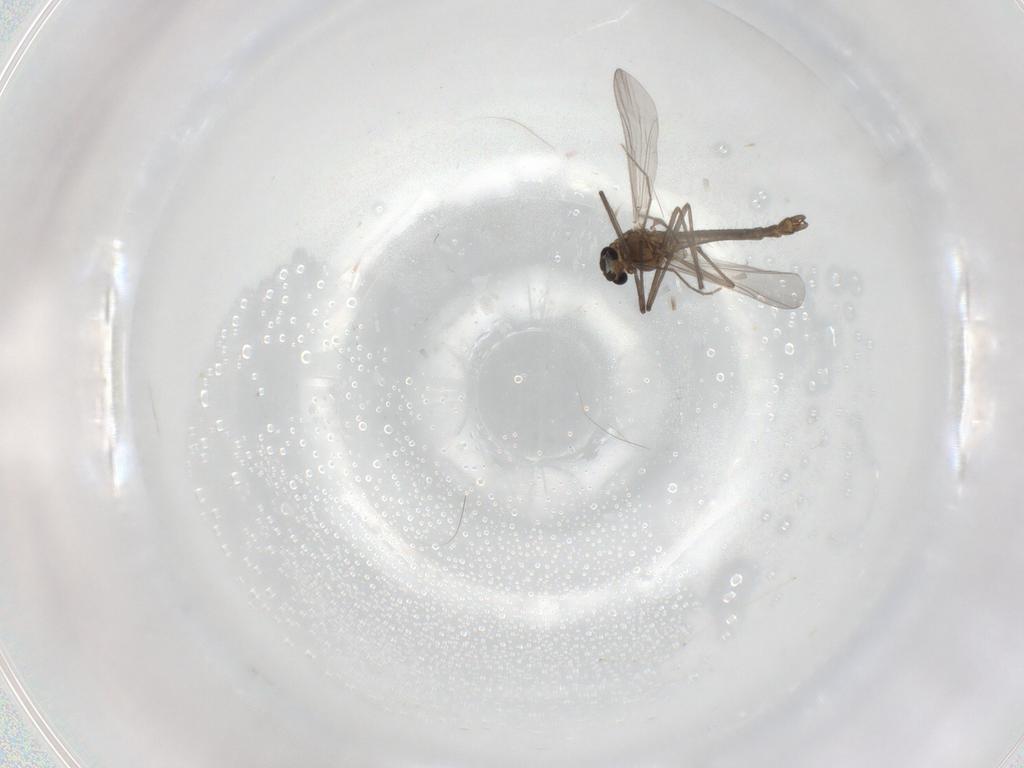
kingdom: Animalia
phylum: Arthropoda
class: Insecta
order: Diptera
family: Chironomidae
